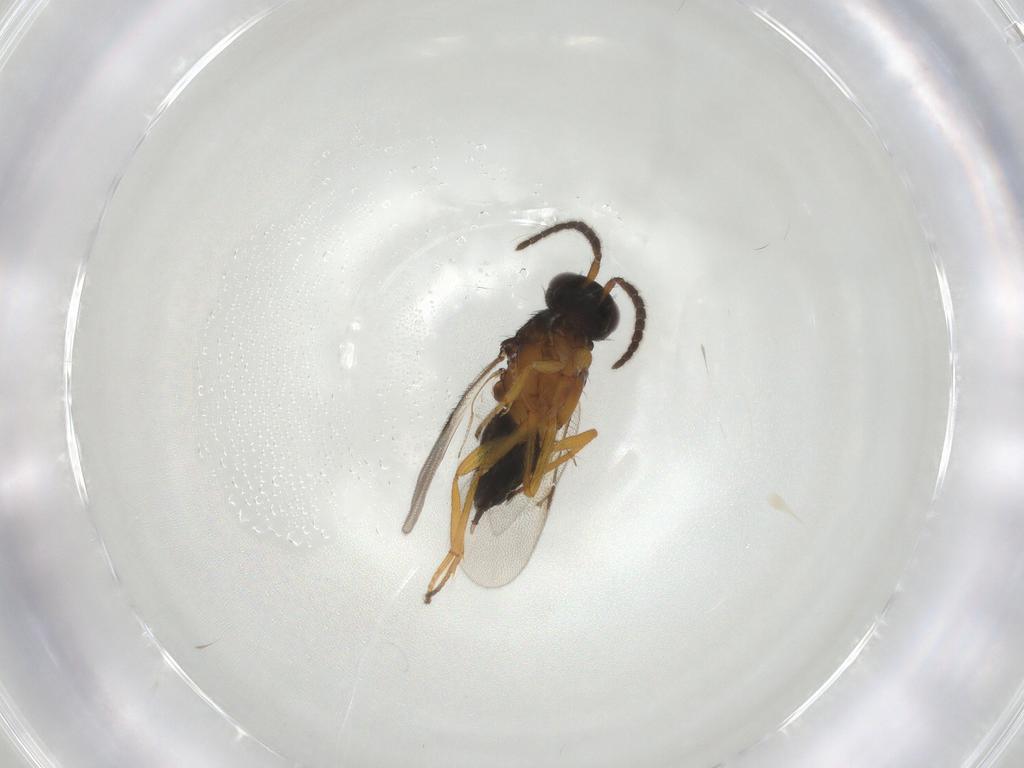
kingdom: Animalia
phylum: Arthropoda
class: Insecta
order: Hymenoptera
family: Encyrtidae
